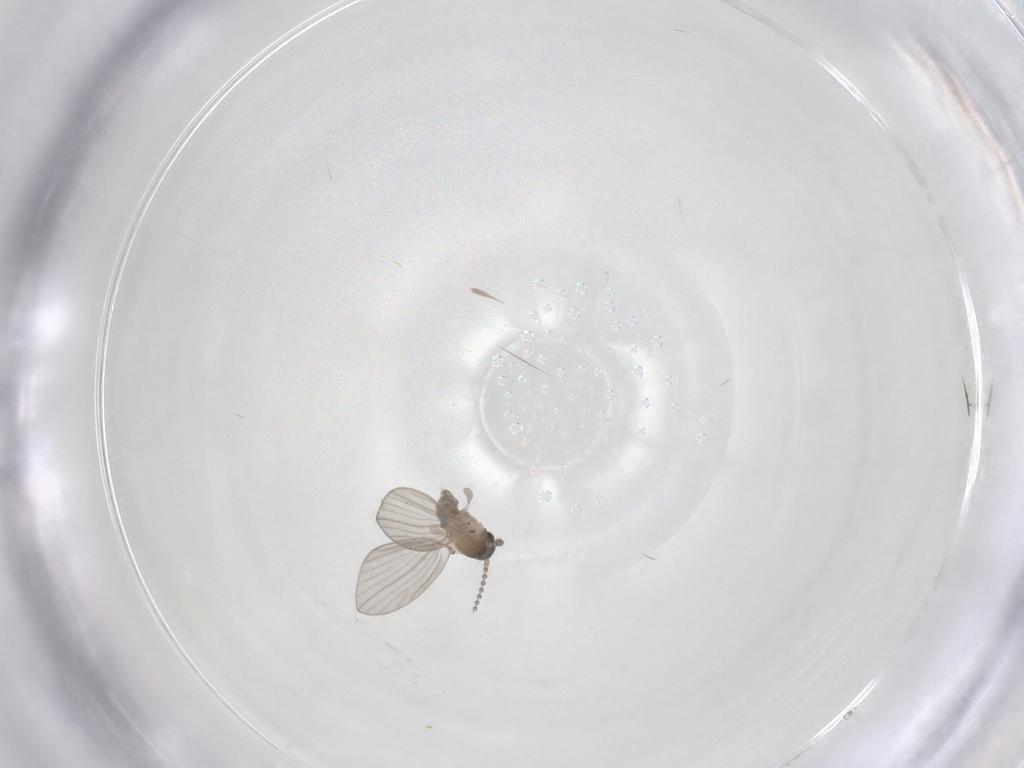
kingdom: Animalia
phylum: Arthropoda
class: Insecta
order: Diptera
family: Psychodidae
